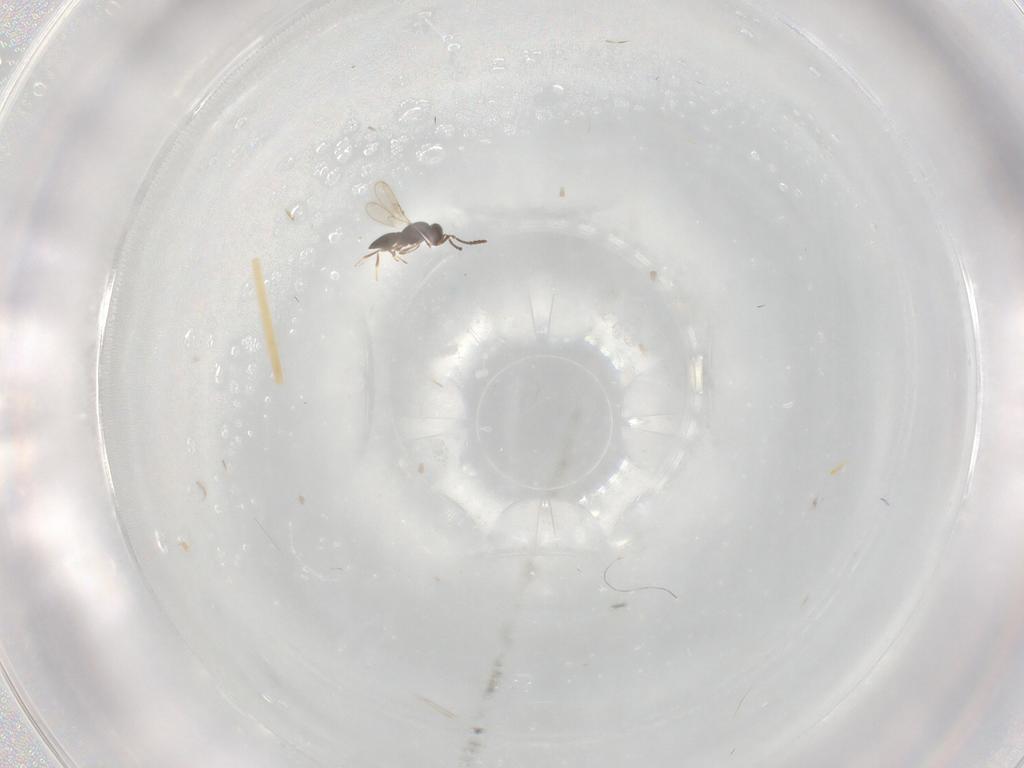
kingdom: Animalia
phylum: Arthropoda
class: Insecta
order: Hymenoptera
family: Scelionidae
